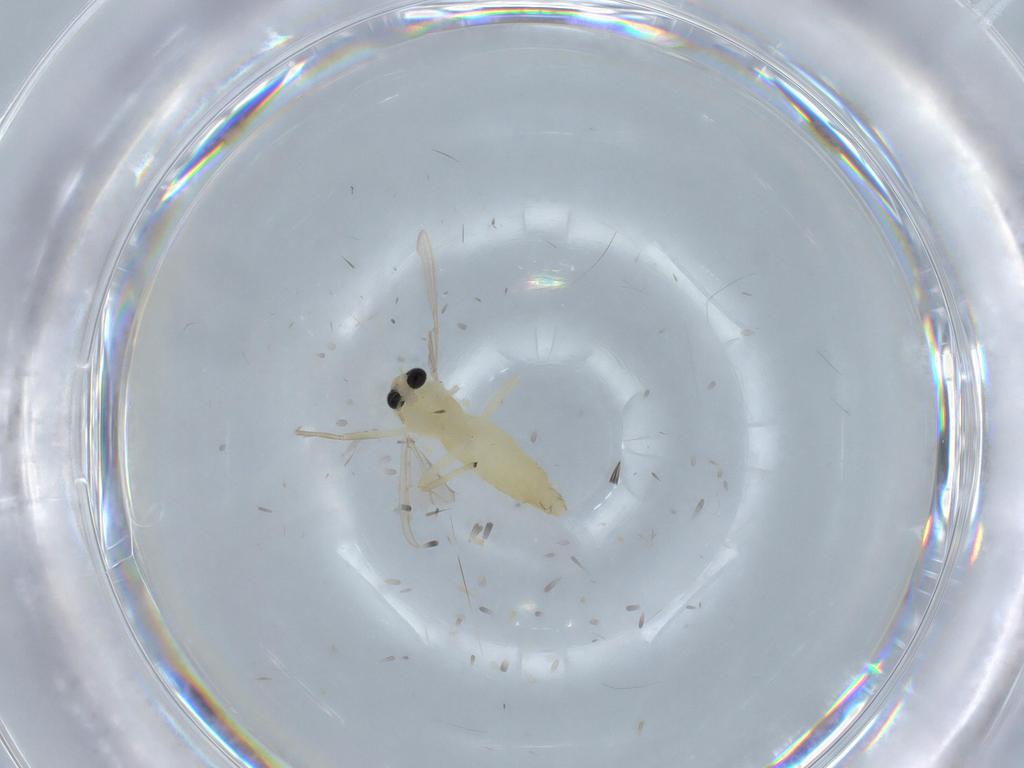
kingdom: Animalia
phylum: Arthropoda
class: Insecta
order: Diptera
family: Chironomidae
